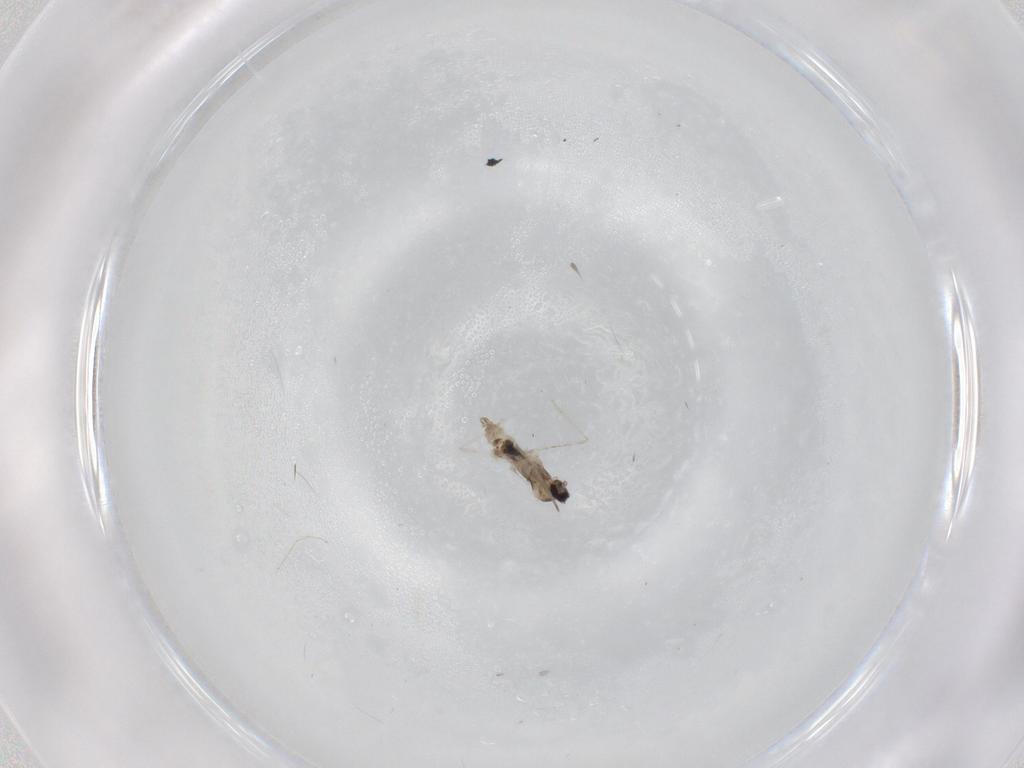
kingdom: Animalia
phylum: Arthropoda
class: Insecta
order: Diptera
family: Cecidomyiidae
